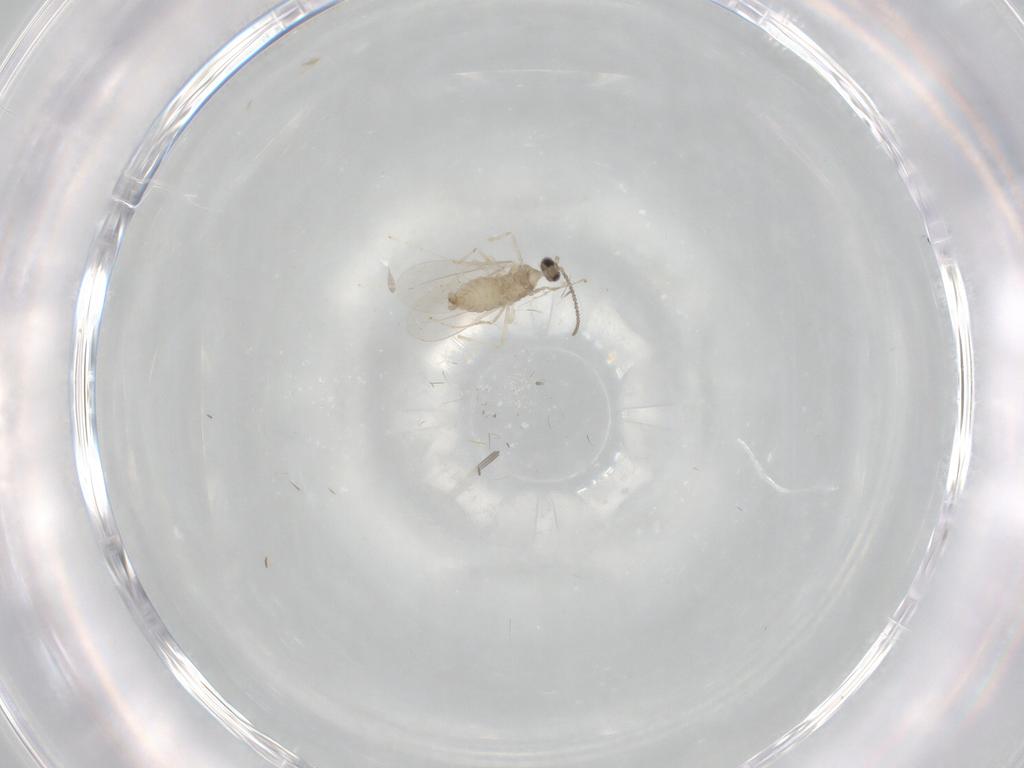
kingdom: Animalia
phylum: Arthropoda
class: Insecta
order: Diptera
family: Cecidomyiidae
